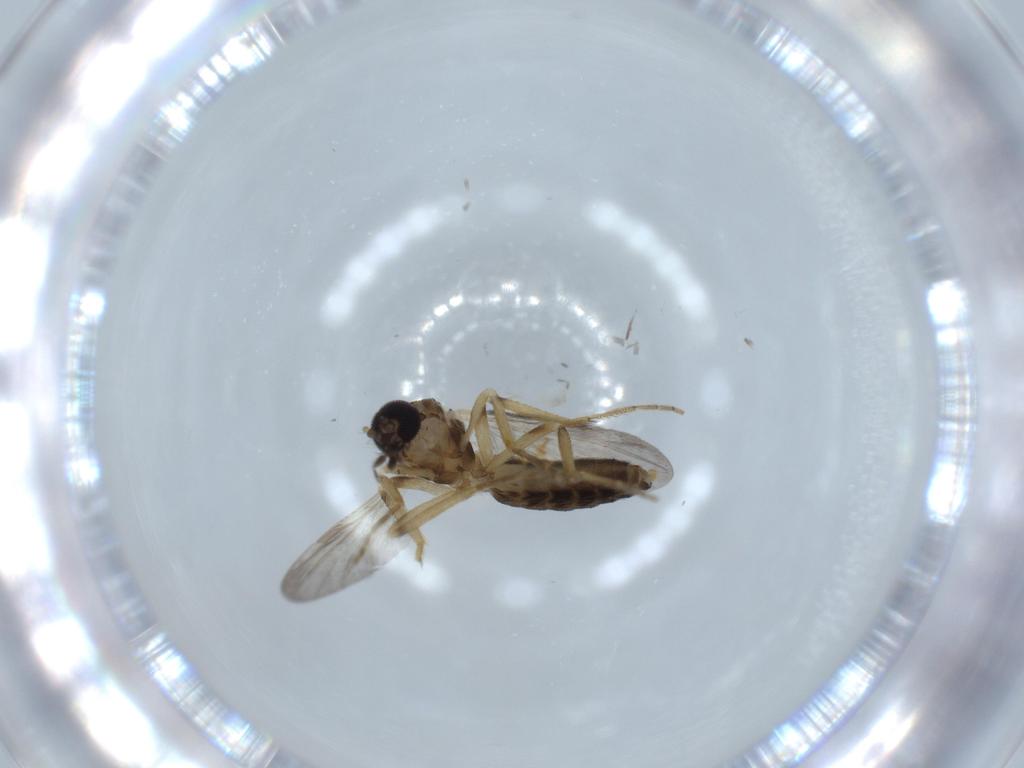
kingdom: Animalia
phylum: Arthropoda
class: Insecta
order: Diptera
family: Ceratopogonidae
